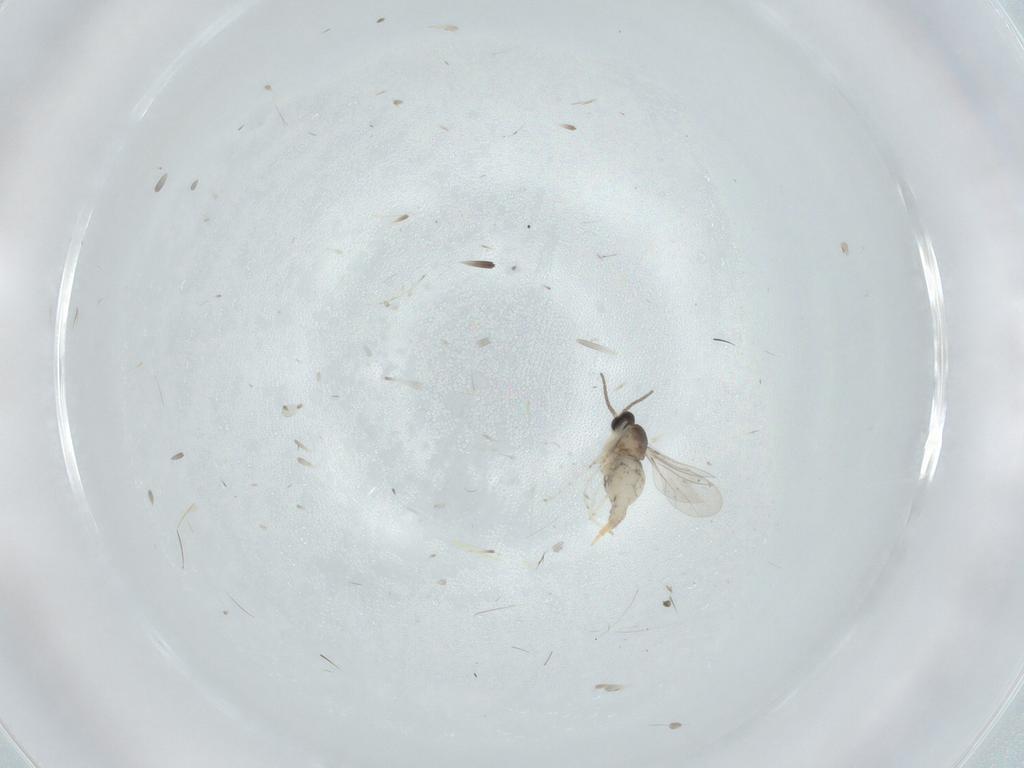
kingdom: Animalia
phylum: Arthropoda
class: Insecta
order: Diptera
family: Cecidomyiidae
